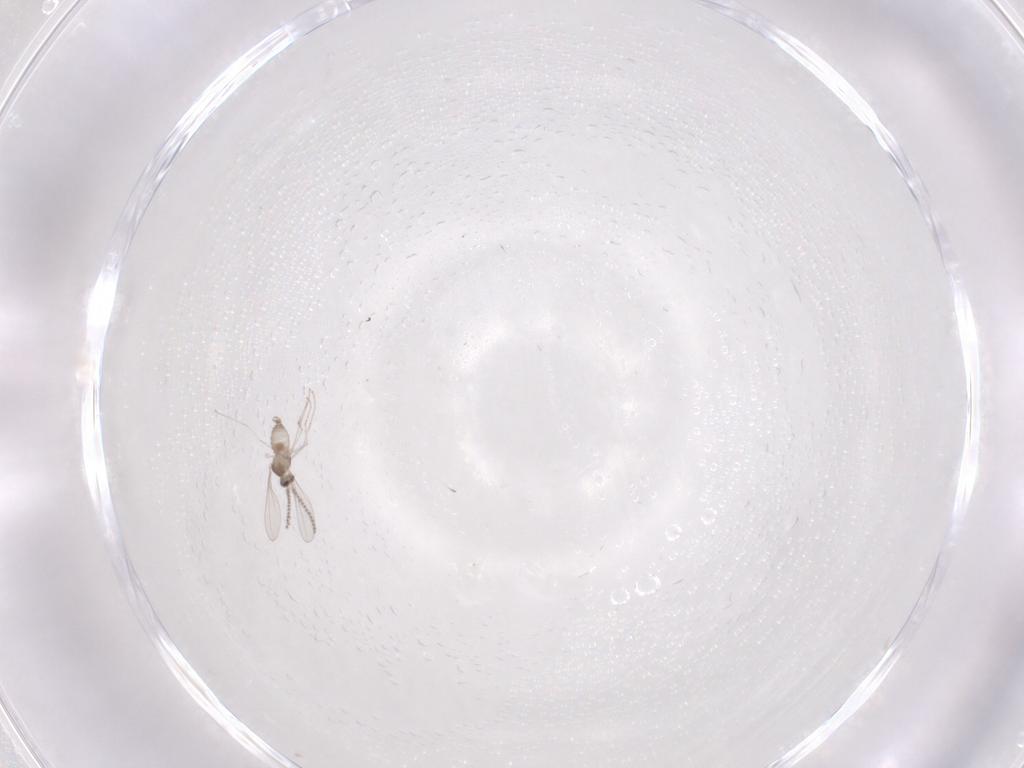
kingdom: Animalia
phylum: Arthropoda
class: Insecta
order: Diptera
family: Cecidomyiidae
